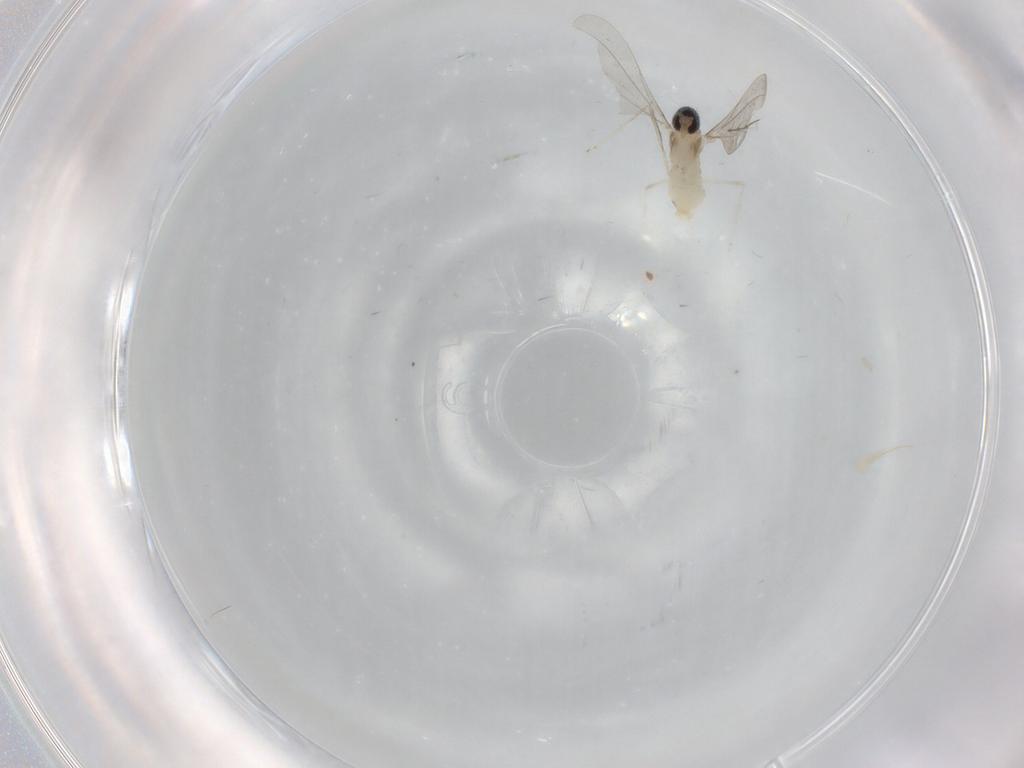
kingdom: Animalia
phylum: Arthropoda
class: Insecta
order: Diptera
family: Cecidomyiidae
